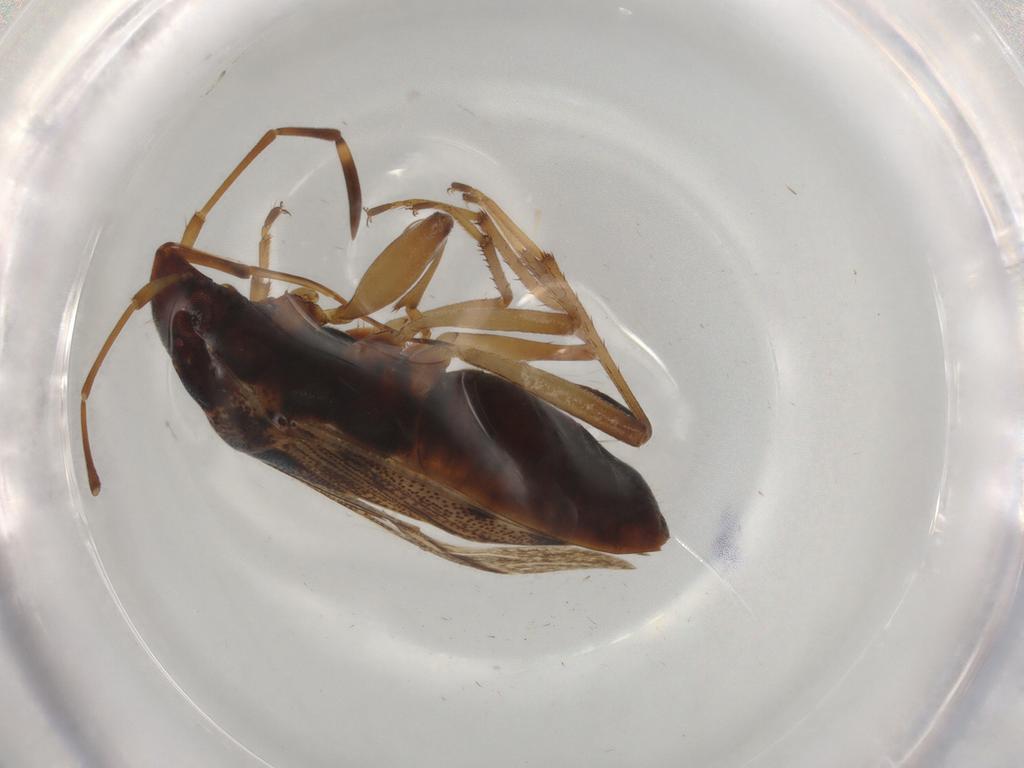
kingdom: Animalia
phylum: Arthropoda
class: Insecta
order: Hemiptera
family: Rhyparochromidae
